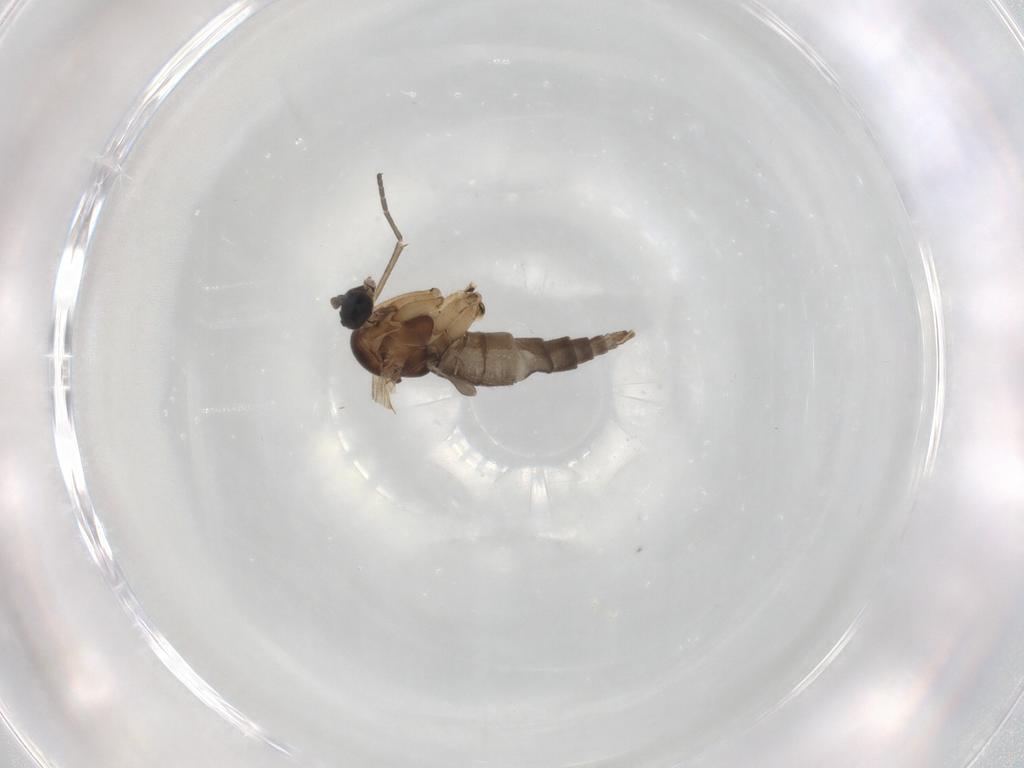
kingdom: Animalia
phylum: Arthropoda
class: Insecta
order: Diptera
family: Sciaridae
